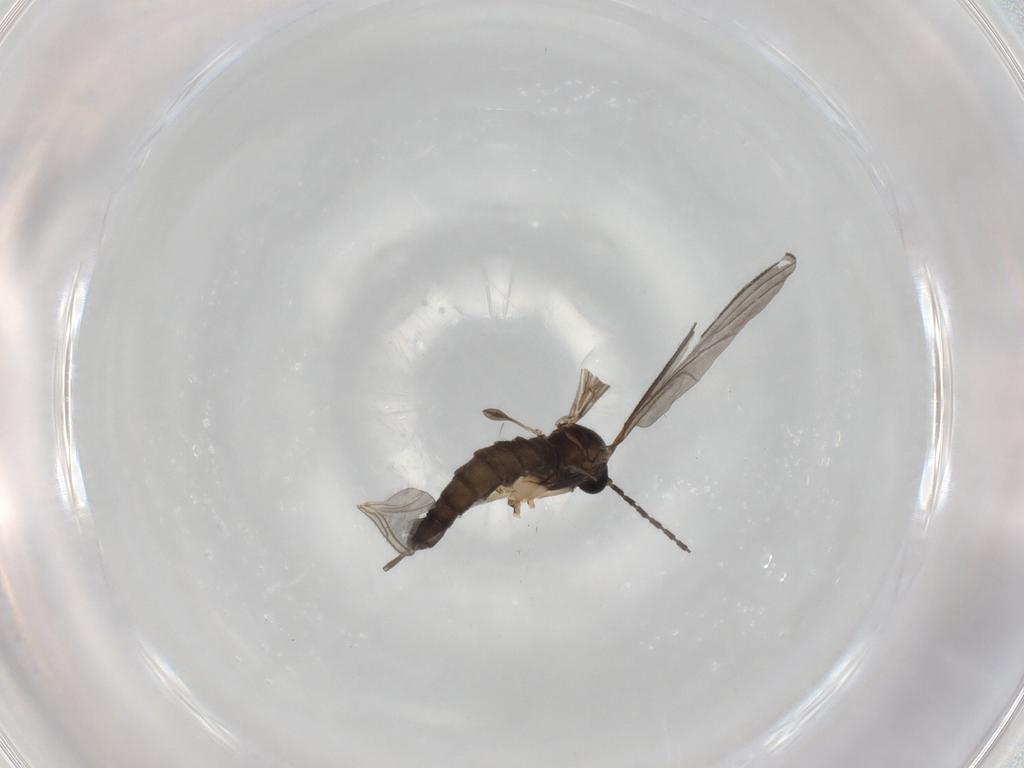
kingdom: Animalia
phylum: Arthropoda
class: Insecta
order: Diptera
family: Sciaridae
